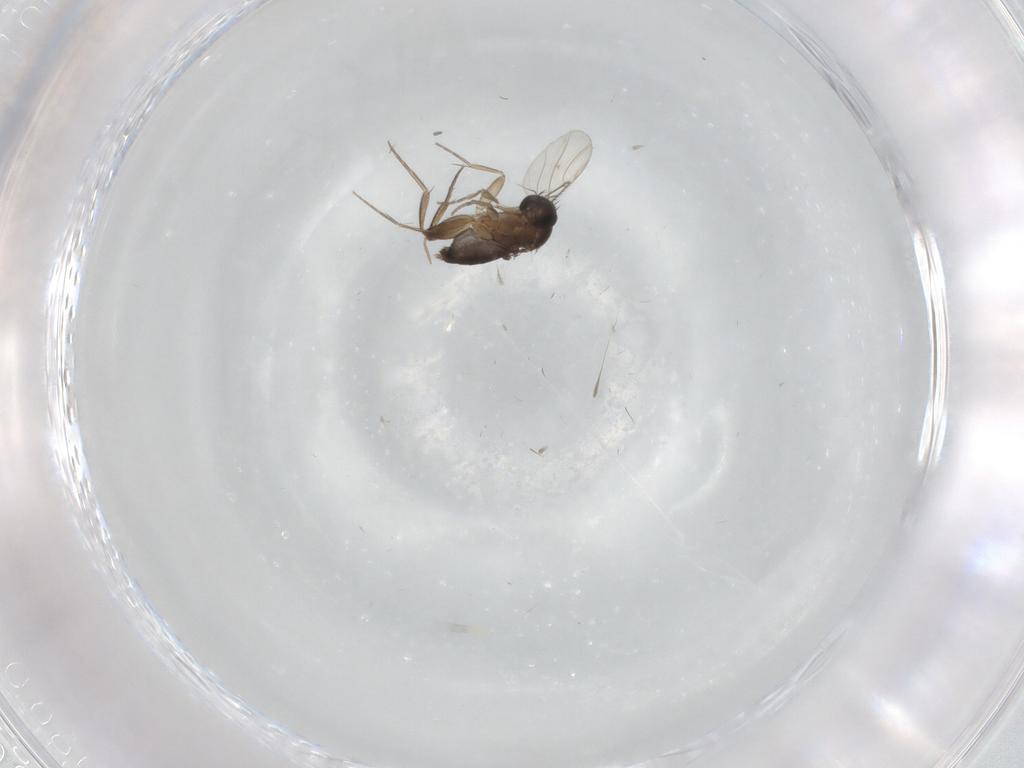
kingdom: Animalia
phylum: Arthropoda
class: Insecta
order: Diptera
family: Phoridae
